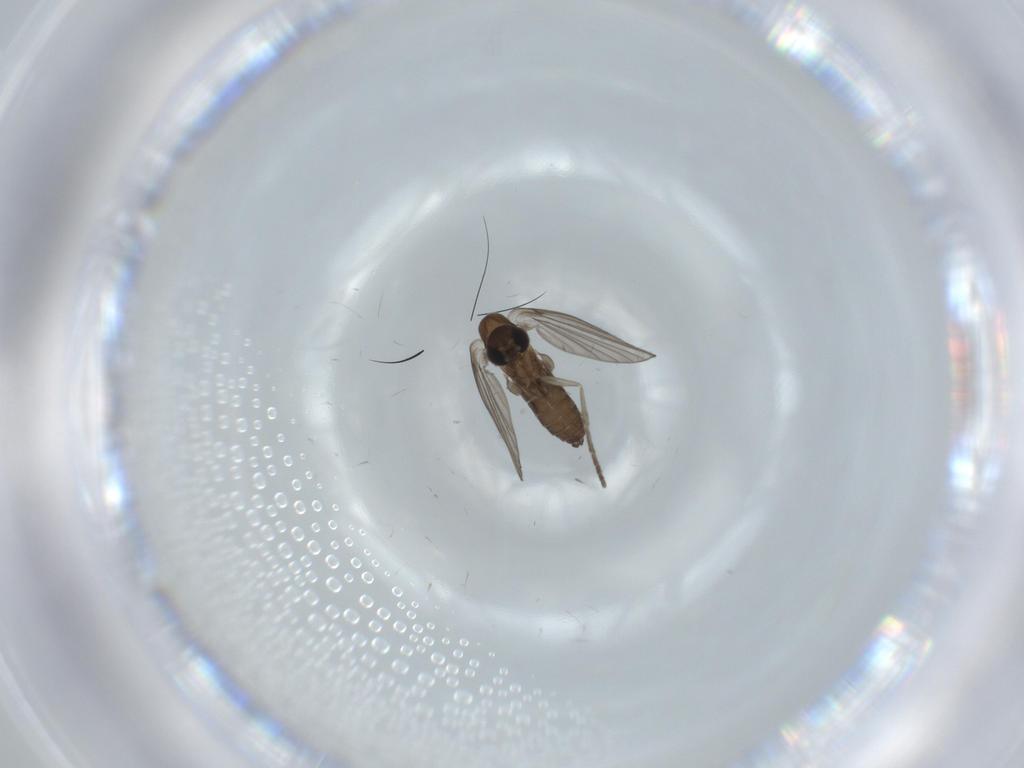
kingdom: Animalia
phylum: Arthropoda
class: Insecta
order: Diptera
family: Psychodidae
